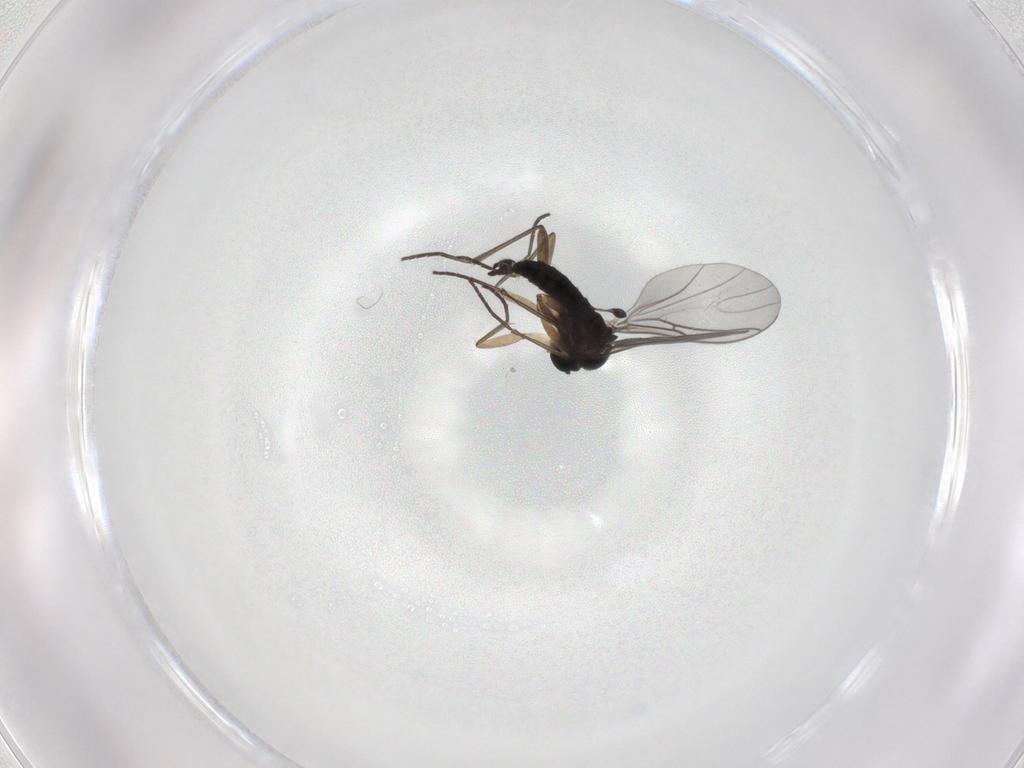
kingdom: Animalia
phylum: Arthropoda
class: Insecta
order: Diptera
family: Sciaridae
